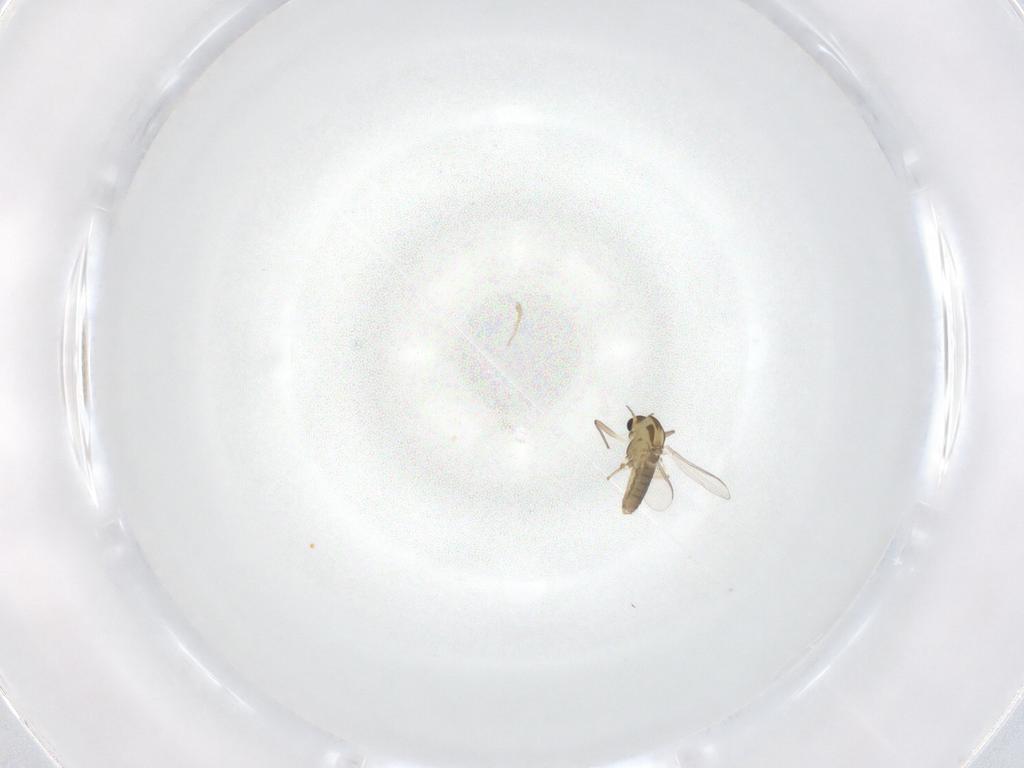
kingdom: Animalia
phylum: Arthropoda
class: Insecta
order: Diptera
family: Chironomidae
